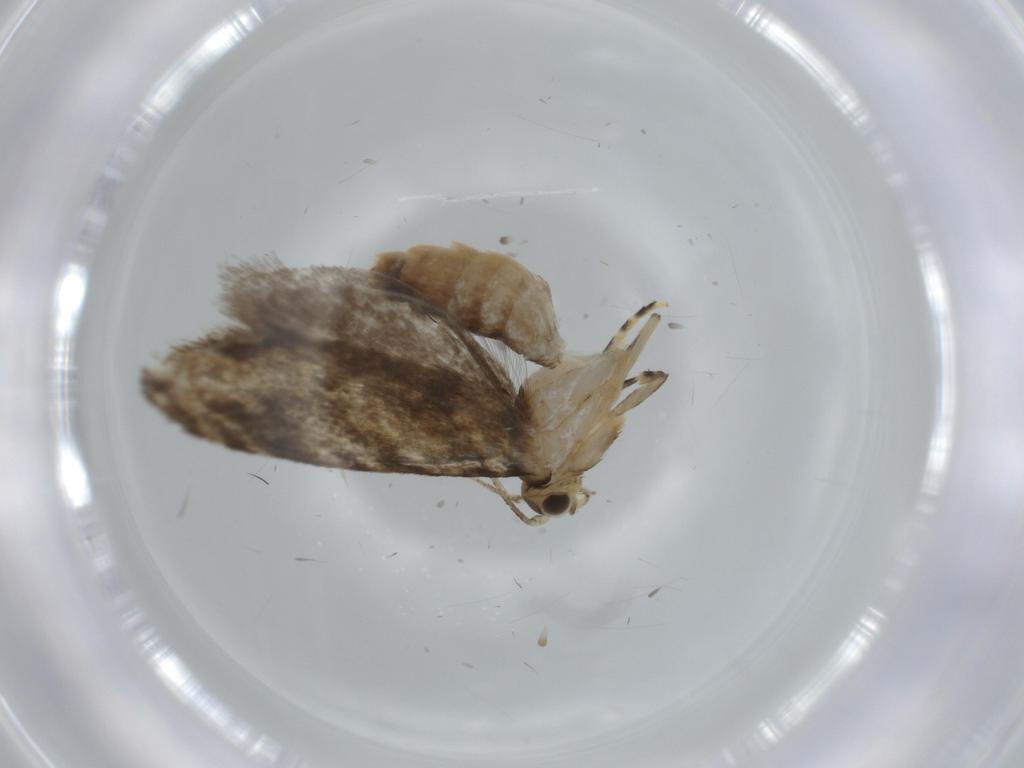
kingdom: Animalia
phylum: Arthropoda
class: Insecta
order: Lepidoptera
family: Tineidae
